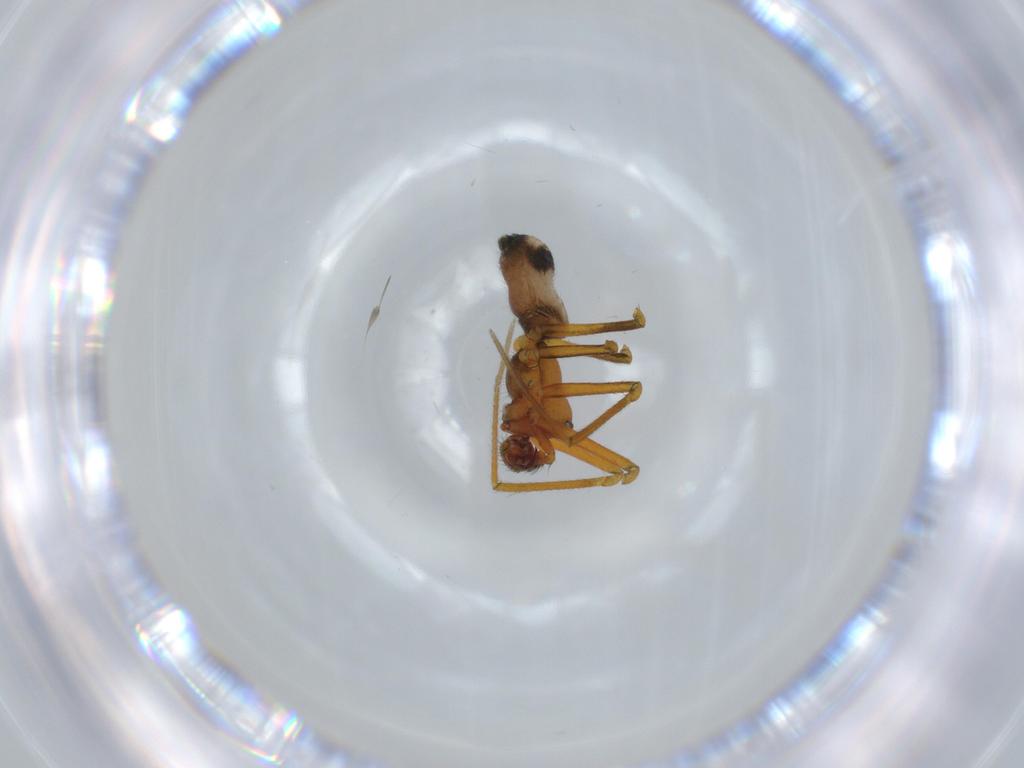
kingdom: Animalia
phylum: Arthropoda
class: Arachnida
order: Araneae
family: Linyphiidae
